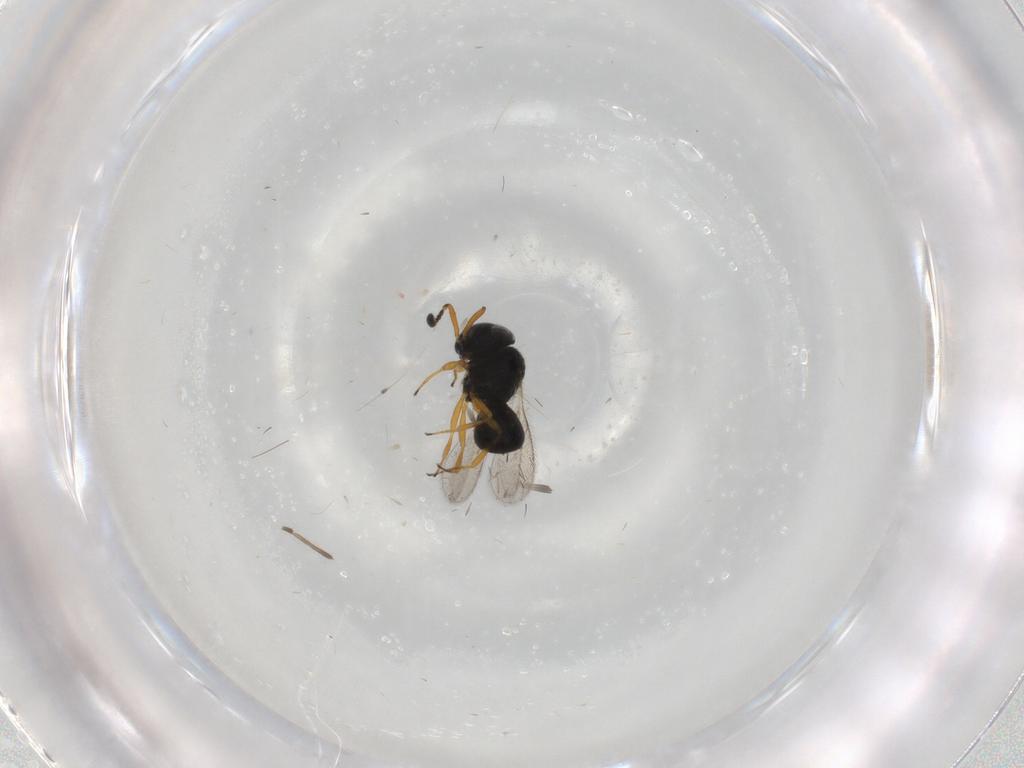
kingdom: Animalia
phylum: Arthropoda
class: Insecta
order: Hymenoptera
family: Scelionidae
